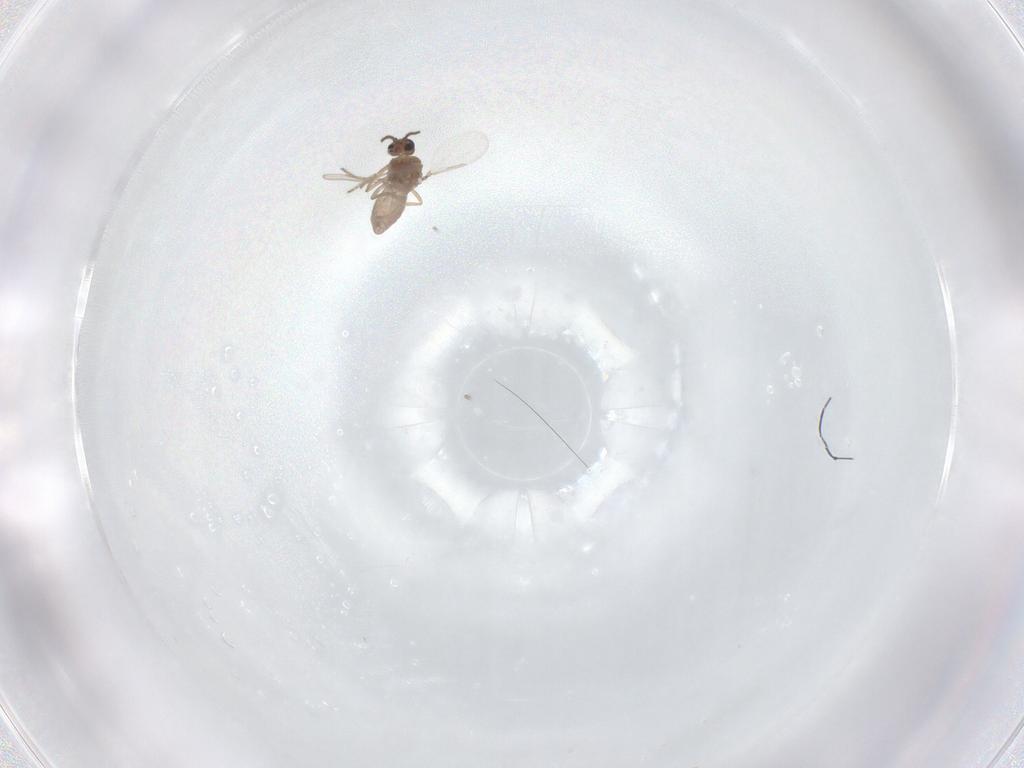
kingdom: Animalia
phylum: Arthropoda
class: Insecta
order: Diptera
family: Ceratopogonidae
